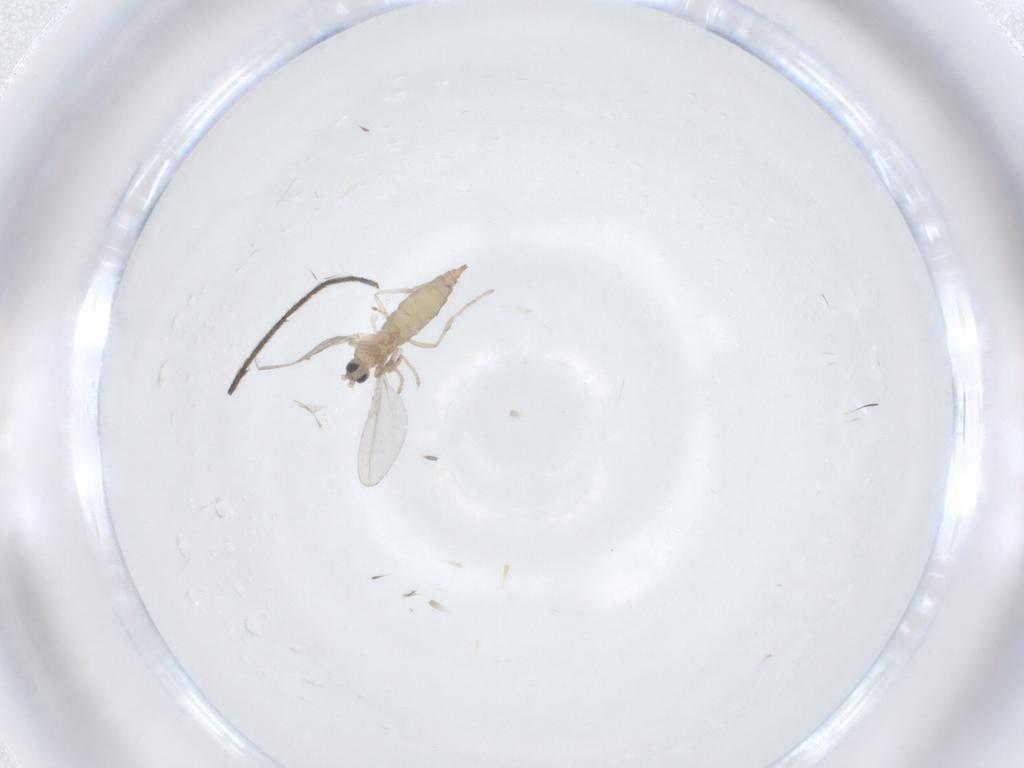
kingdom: Animalia
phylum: Arthropoda
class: Insecta
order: Diptera
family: Cecidomyiidae
